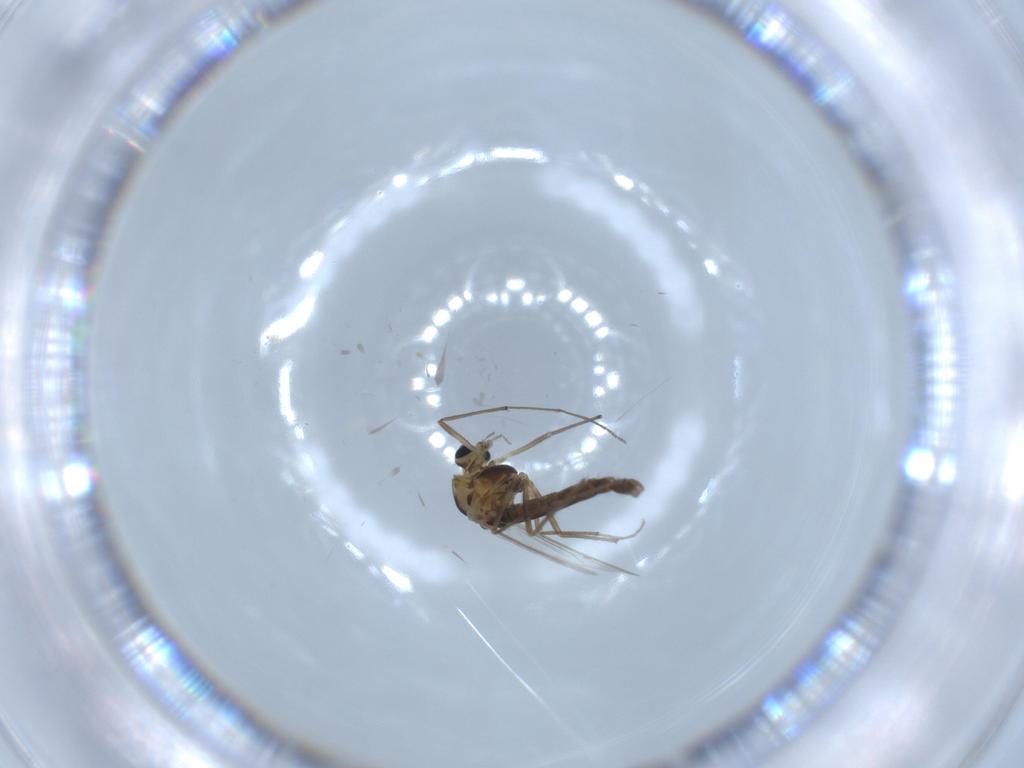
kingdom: Animalia
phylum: Arthropoda
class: Insecta
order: Diptera
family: Chironomidae
